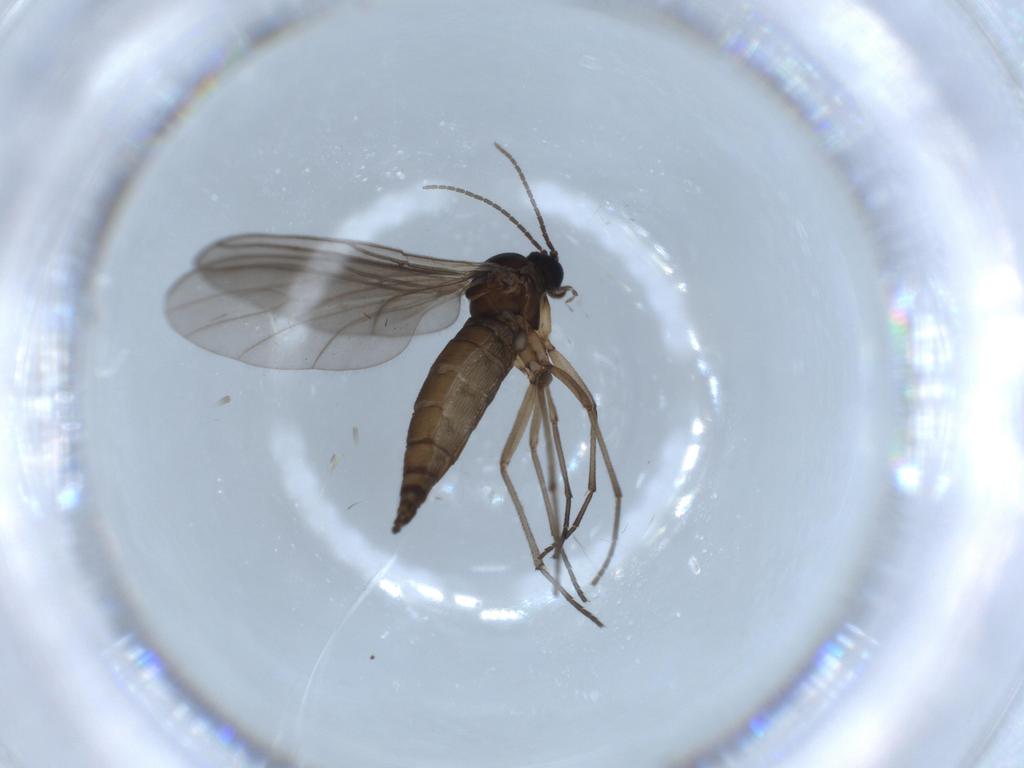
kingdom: Animalia
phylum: Arthropoda
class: Insecta
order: Diptera
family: Sciaridae
